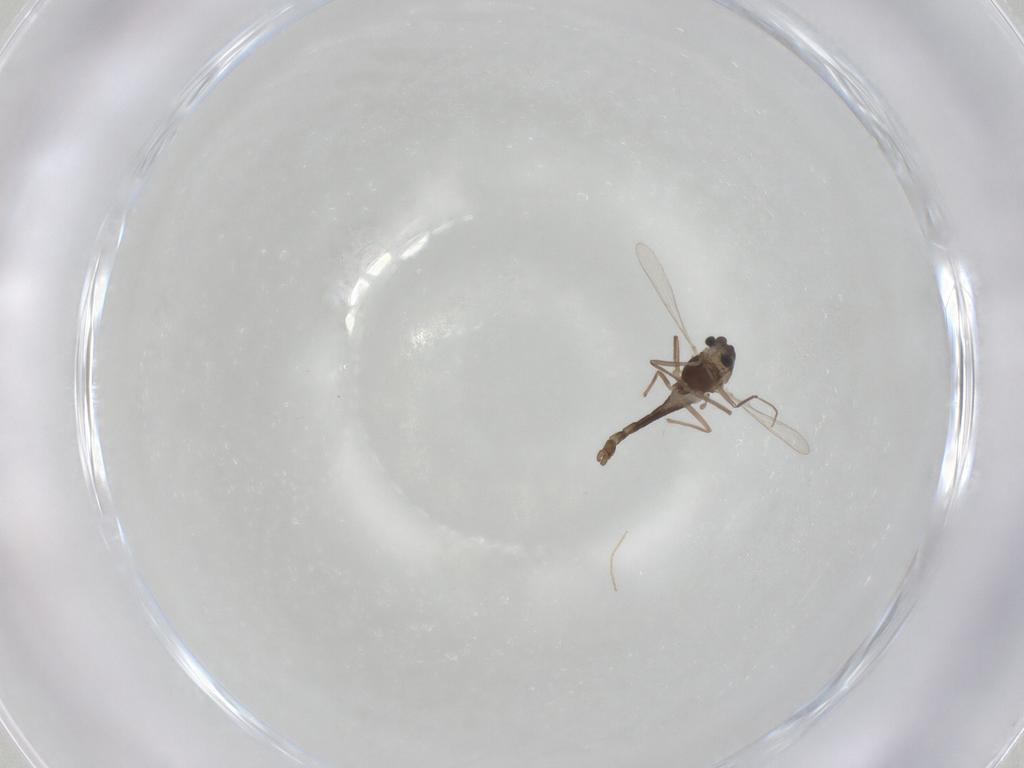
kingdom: Animalia
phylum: Arthropoda
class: Insecta
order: Diptera
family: Chironomidae
